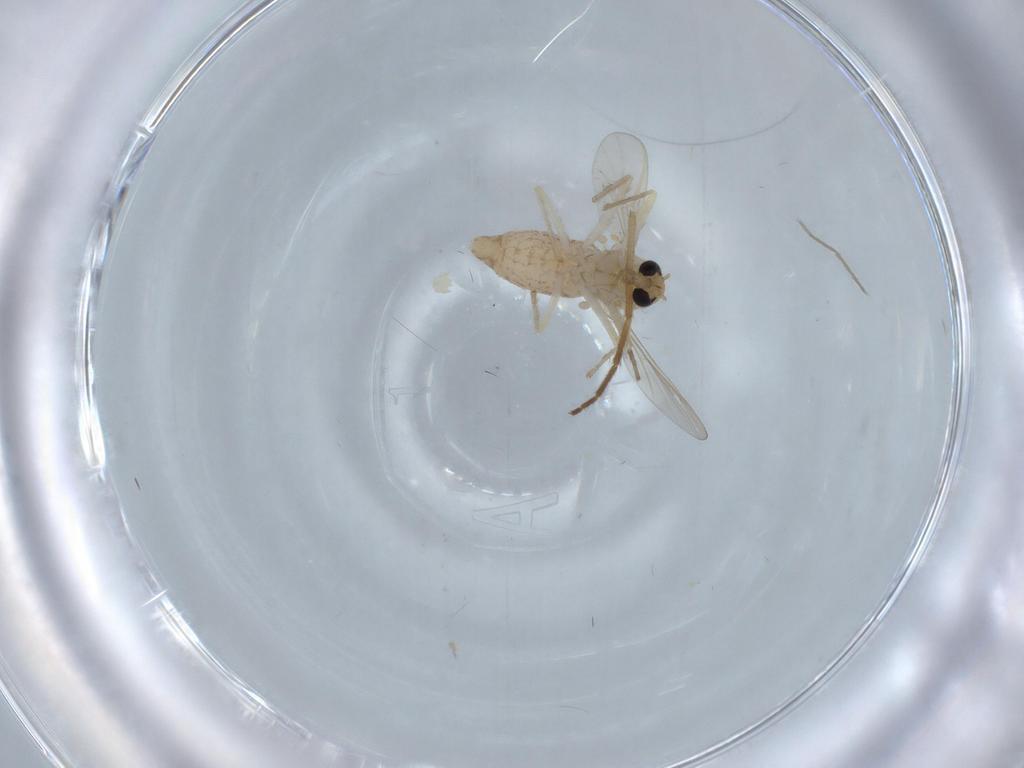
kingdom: Animalia
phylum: Arthropoda
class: Insecta
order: Diptera
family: Chironomidae
